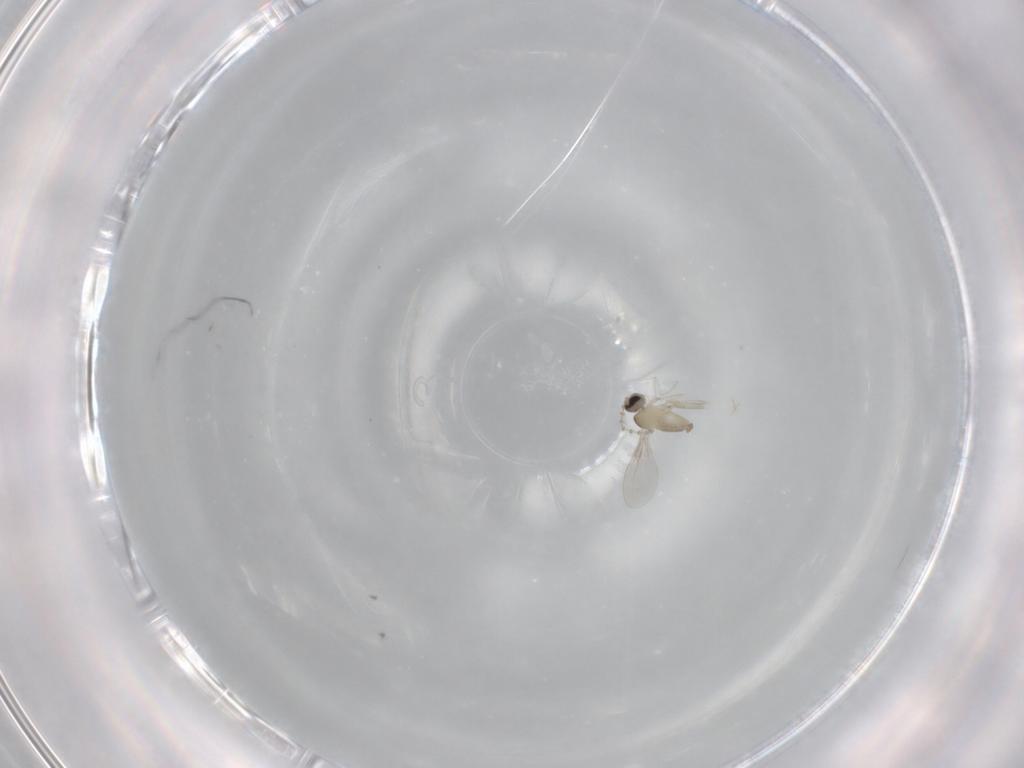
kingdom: Animalia
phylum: Arthropoda
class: Insecta
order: Diptera
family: Cecidomyiidae
